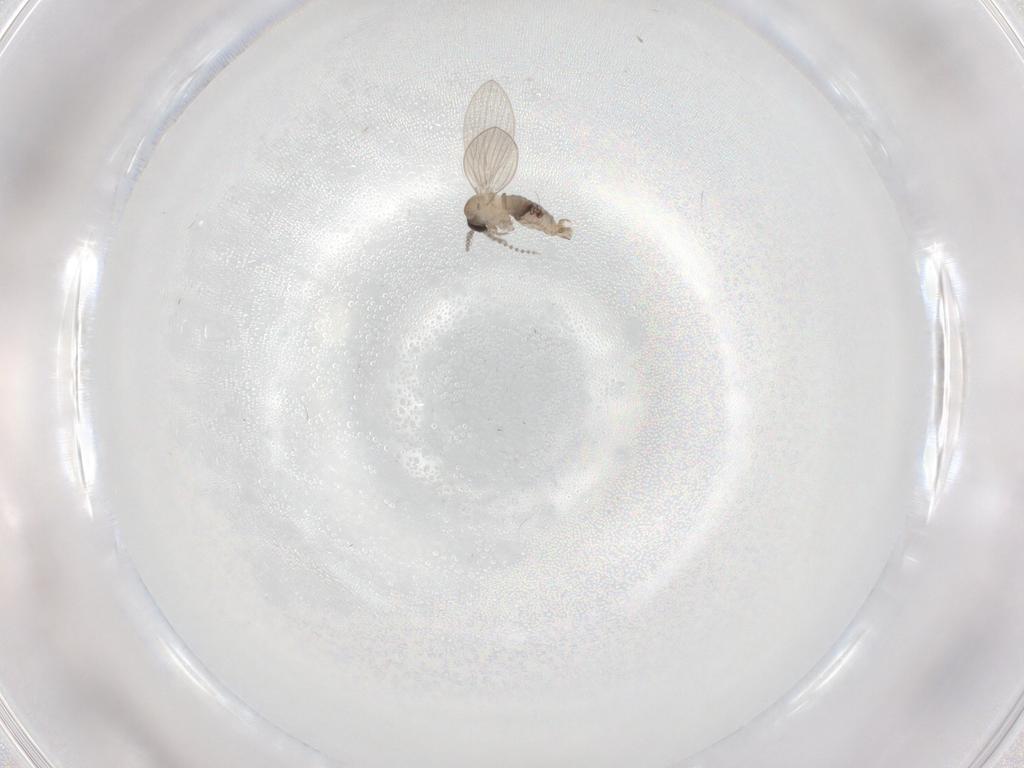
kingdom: Animalia
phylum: Arthropoda
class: Insecta
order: Diptera
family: Psychodidae
